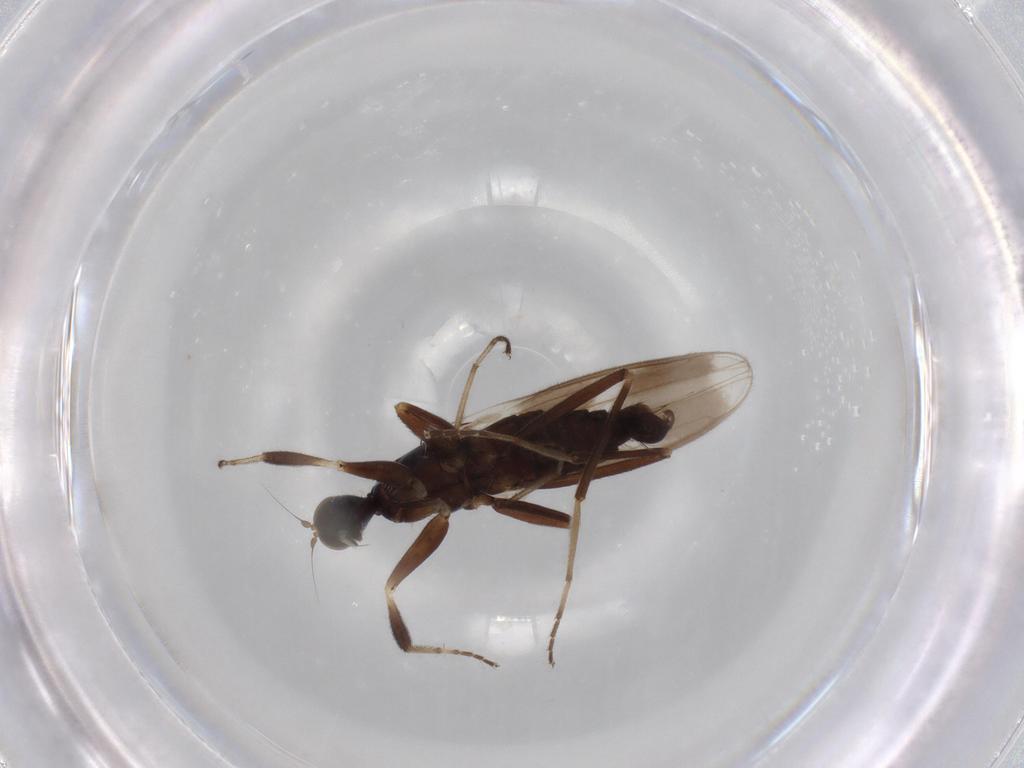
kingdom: Animalia
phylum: Arthropoda
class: Insecta
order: Diptera
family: Hybotidae
